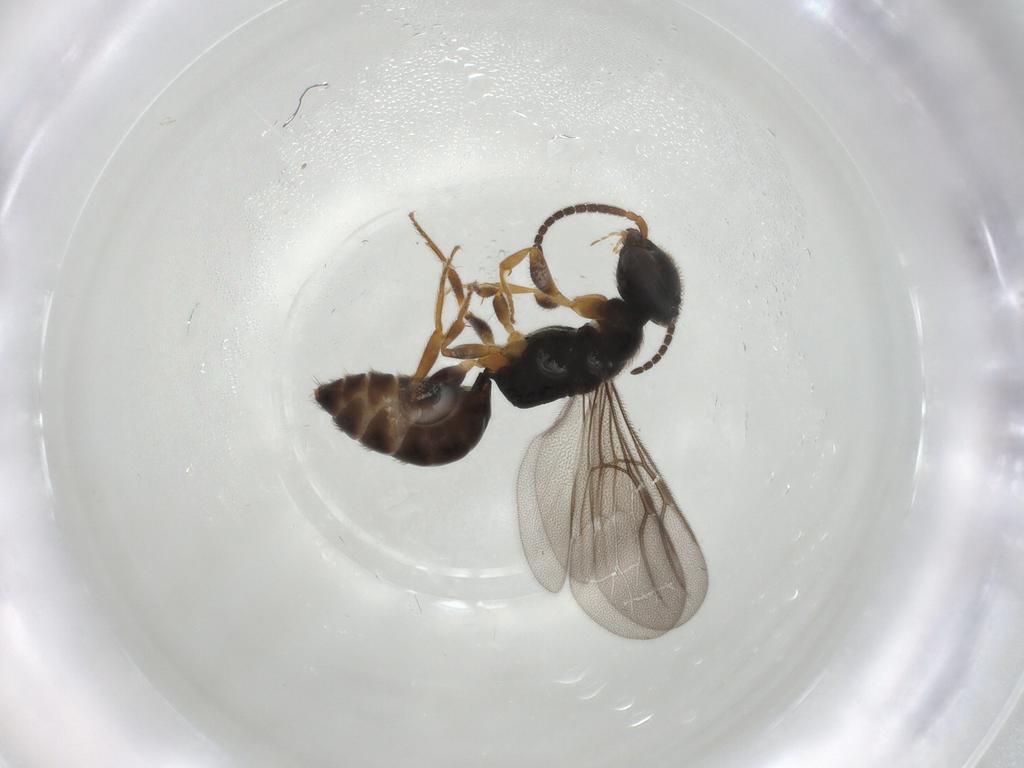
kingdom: Animalia
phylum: Arthropoda
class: Insecta
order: Hymenoptera
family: Bethylidae
